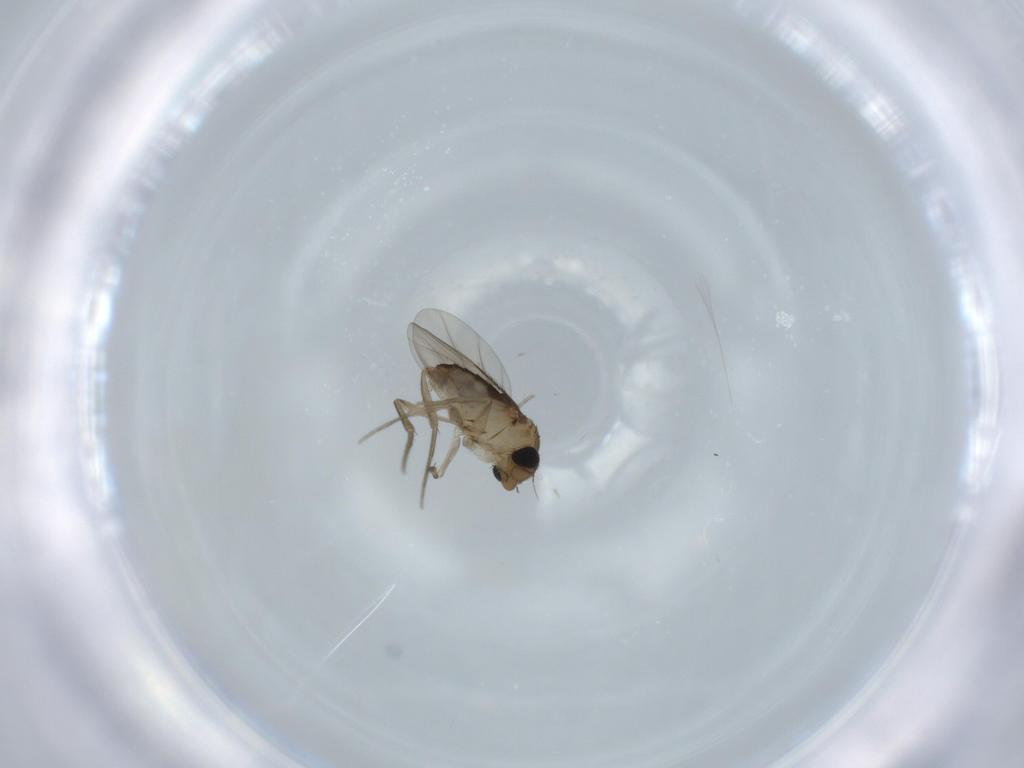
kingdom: Animalia
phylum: Arthropoda
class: Insecta
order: Diptera
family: Phoridae
